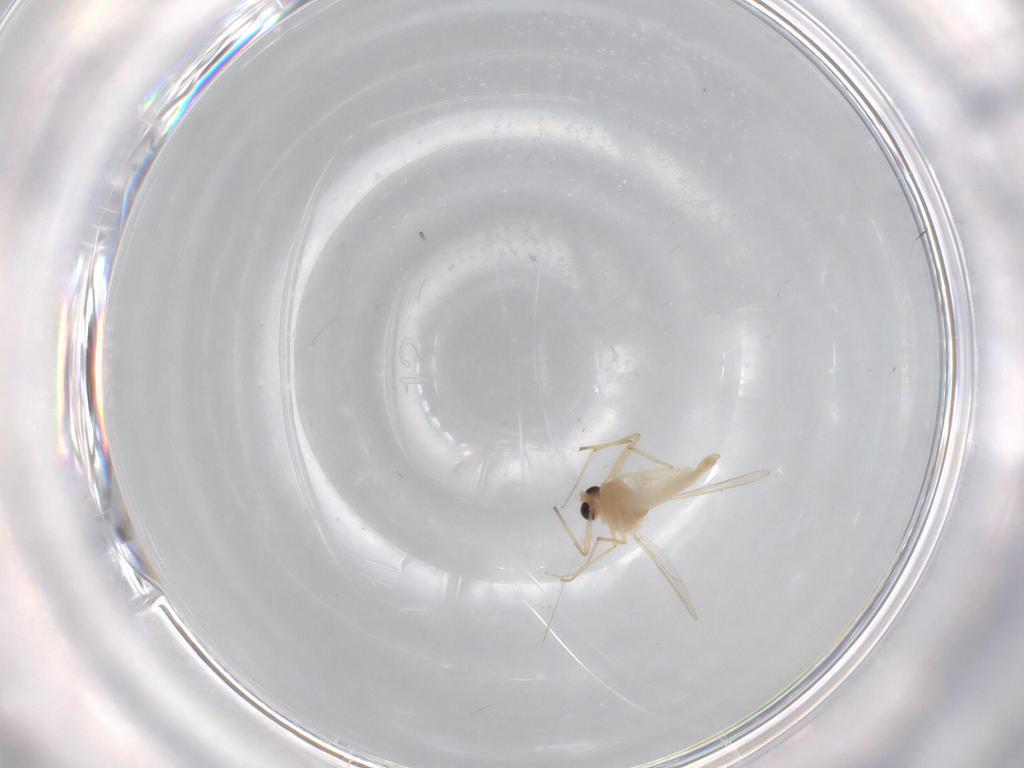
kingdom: Animalia
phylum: Arthropoda
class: Insecta
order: Diptera
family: Chironomidae
